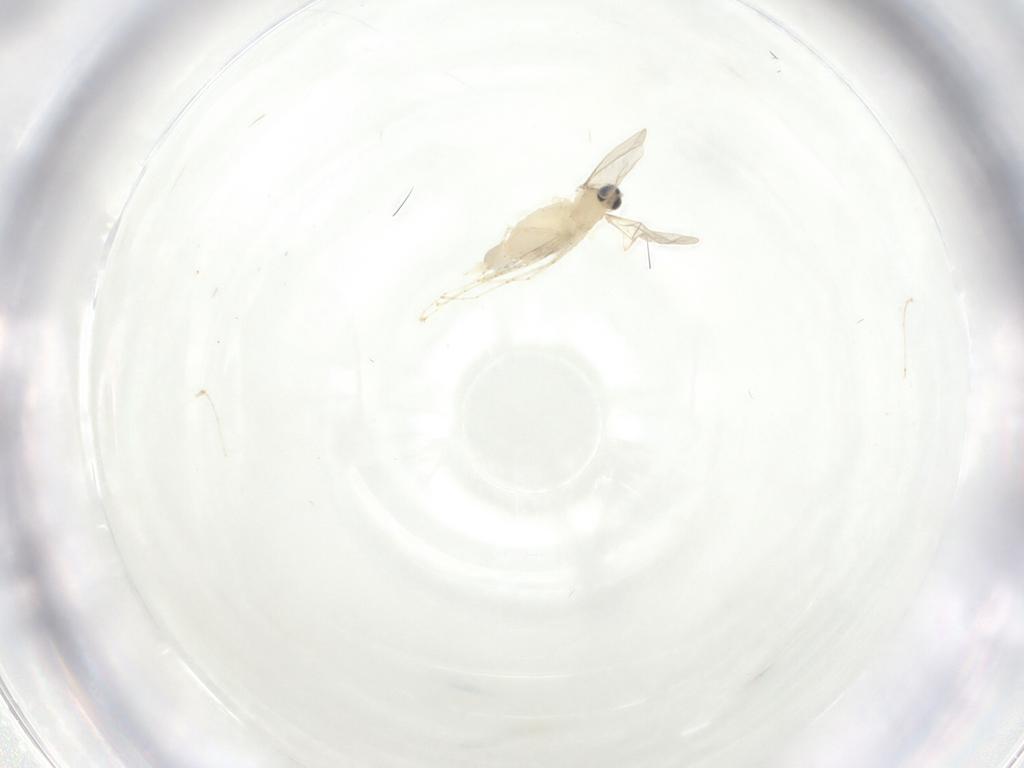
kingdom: Animalia
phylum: Arthropoda
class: Insecta
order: Diptera
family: Cecidomyiidae
